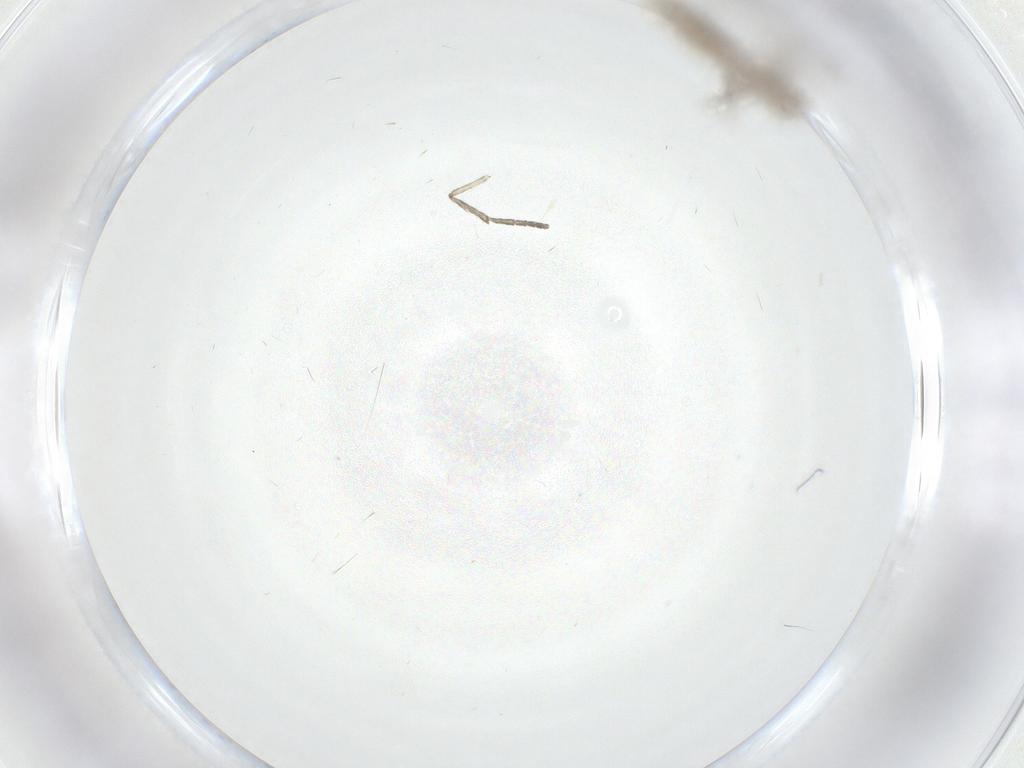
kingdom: Animalia
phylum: Arthropoda
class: Insecta
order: Diptera
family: Chironomidae
